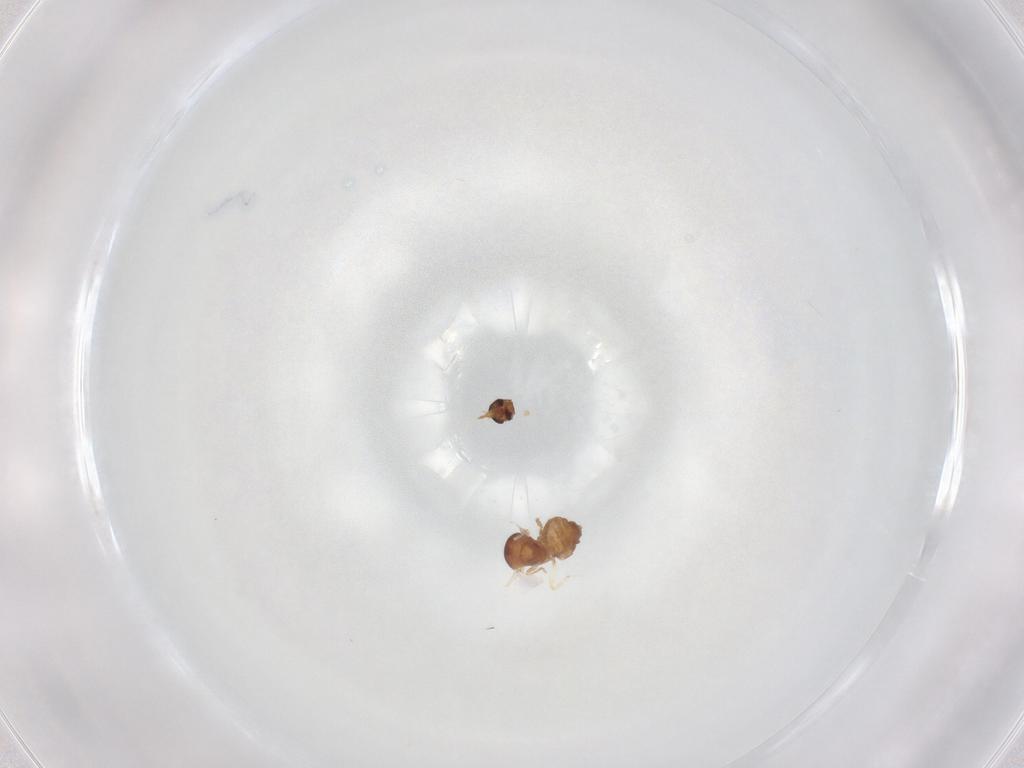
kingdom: Animalia
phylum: Arthropoda
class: Insecta
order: Diptera
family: Ceratopogonidae
